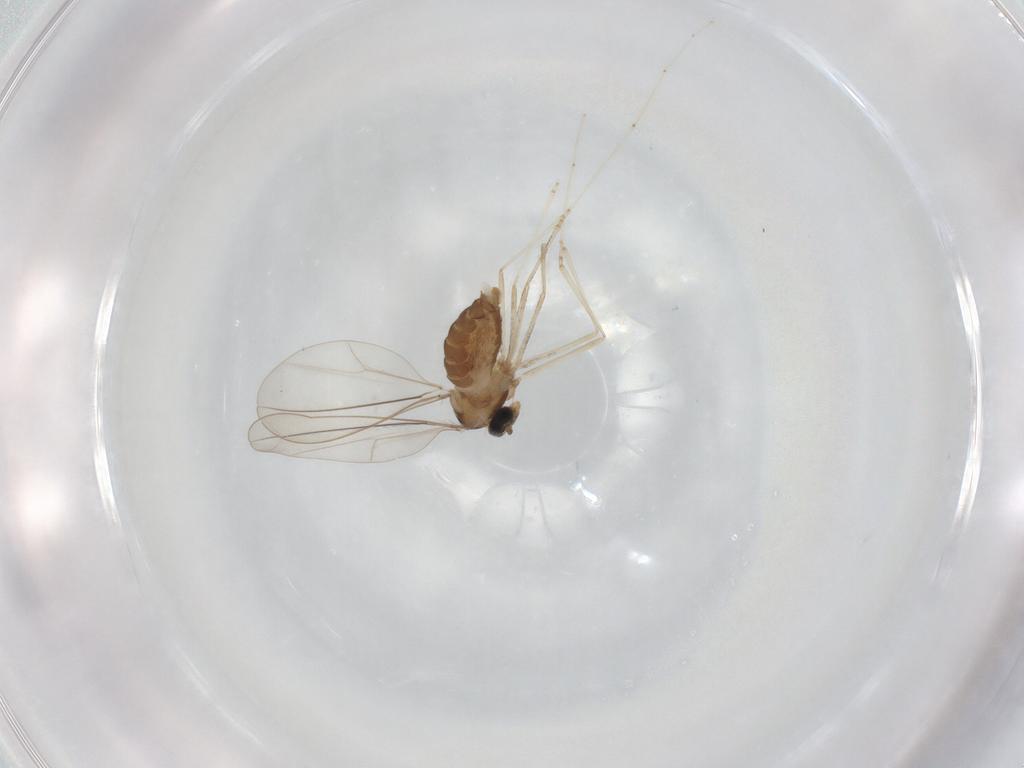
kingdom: Animalia
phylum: Arthropoda
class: Insecta
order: Diptera
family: Cecidomyiidae
